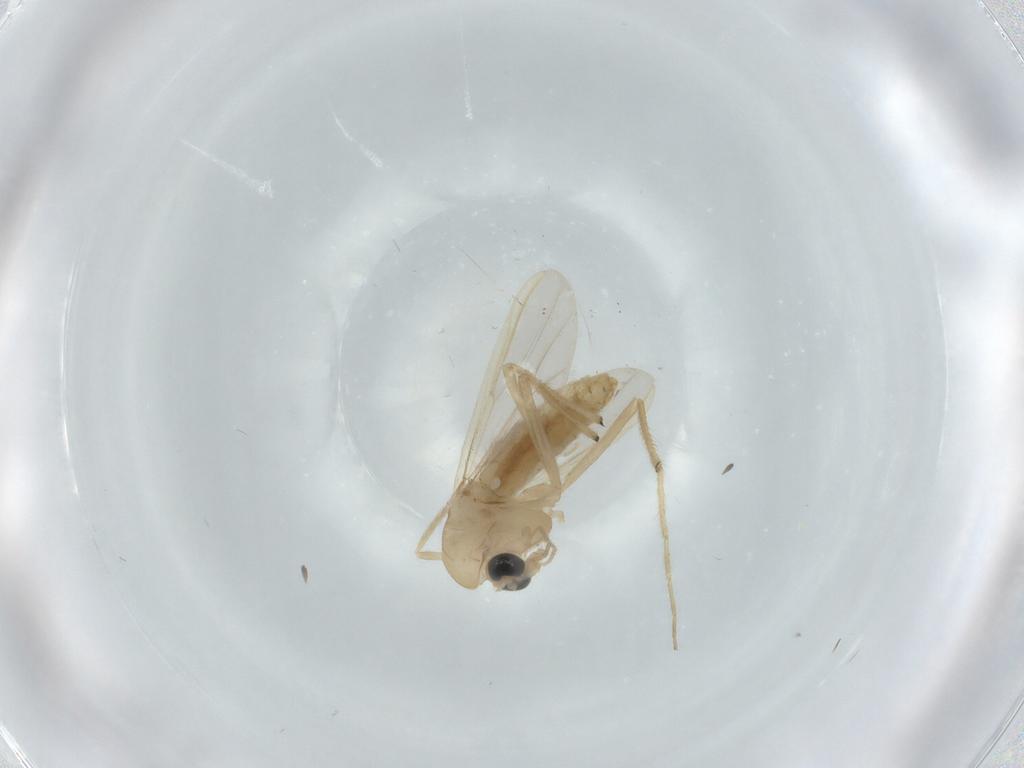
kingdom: Animalia
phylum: Arthropoda
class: Insecta
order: Diptera
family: Chironomidae
